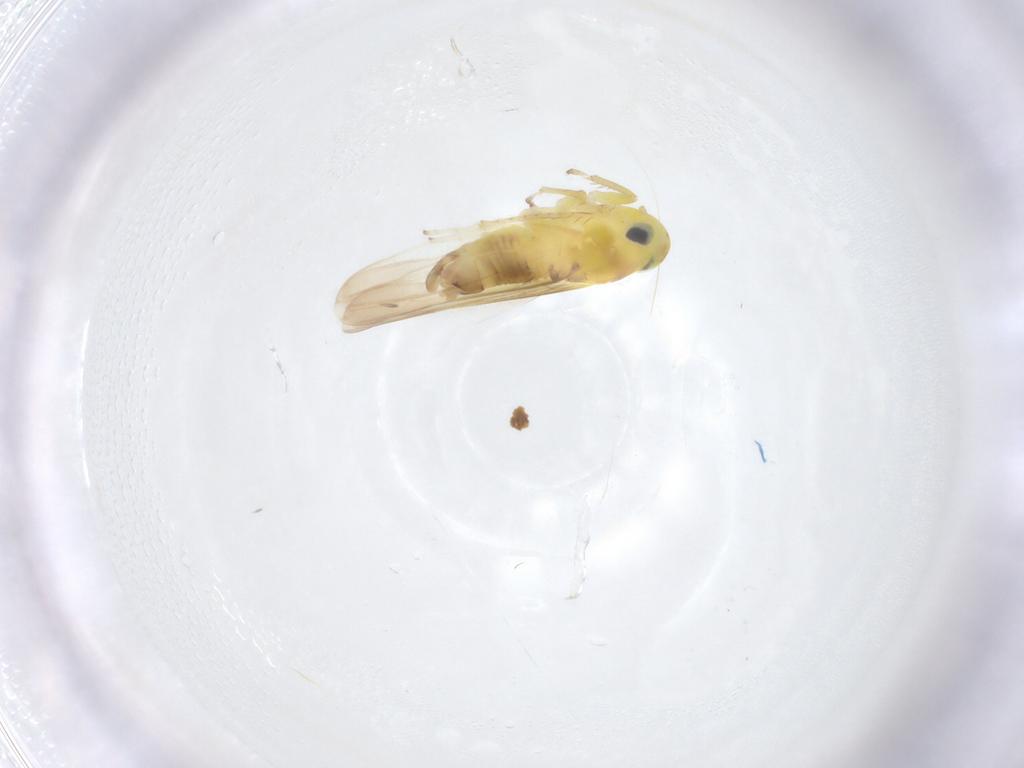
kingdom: Animalia
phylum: Arthropoda
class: Insecta
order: Hemiptera
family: Cicadellidae
